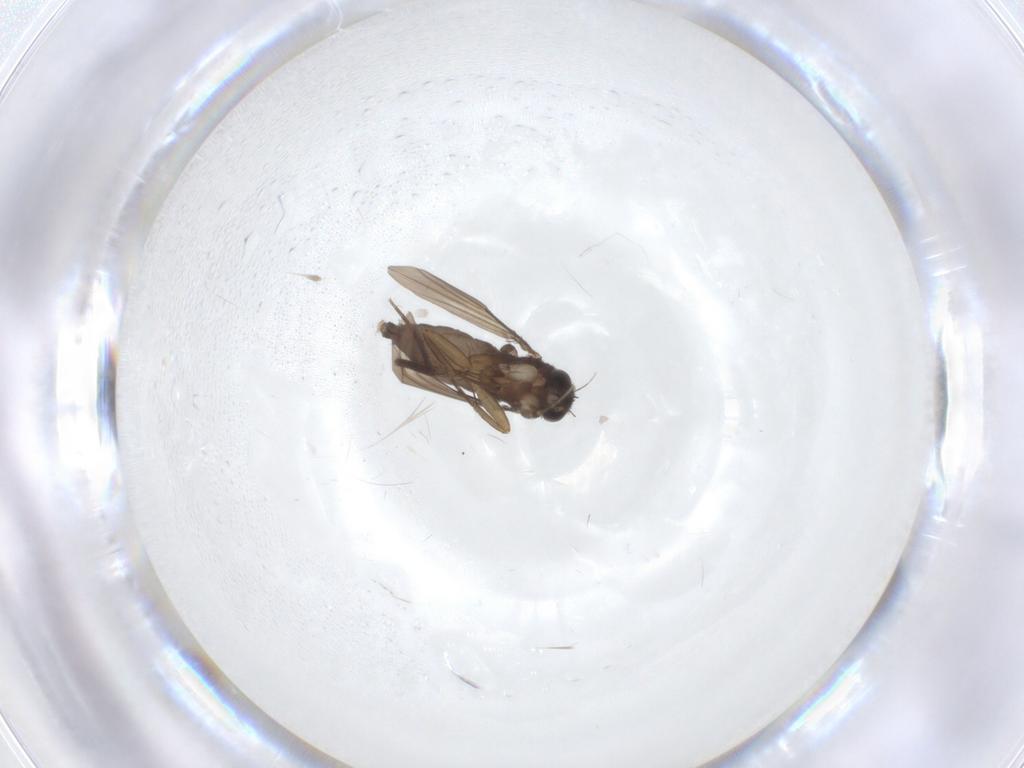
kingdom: Animalia
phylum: Arthropoda
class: Insecta
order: Diptera
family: Phoridae
